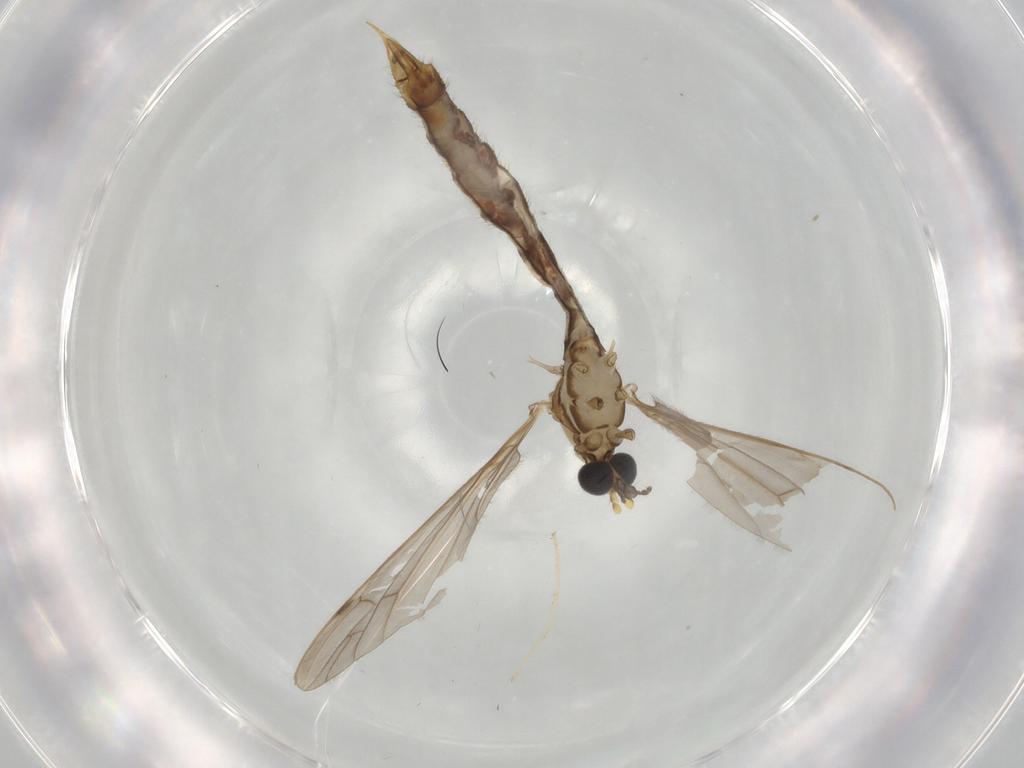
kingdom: Animalia
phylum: Arthropoda
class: Insecta
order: Diptera
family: Limoniidae
